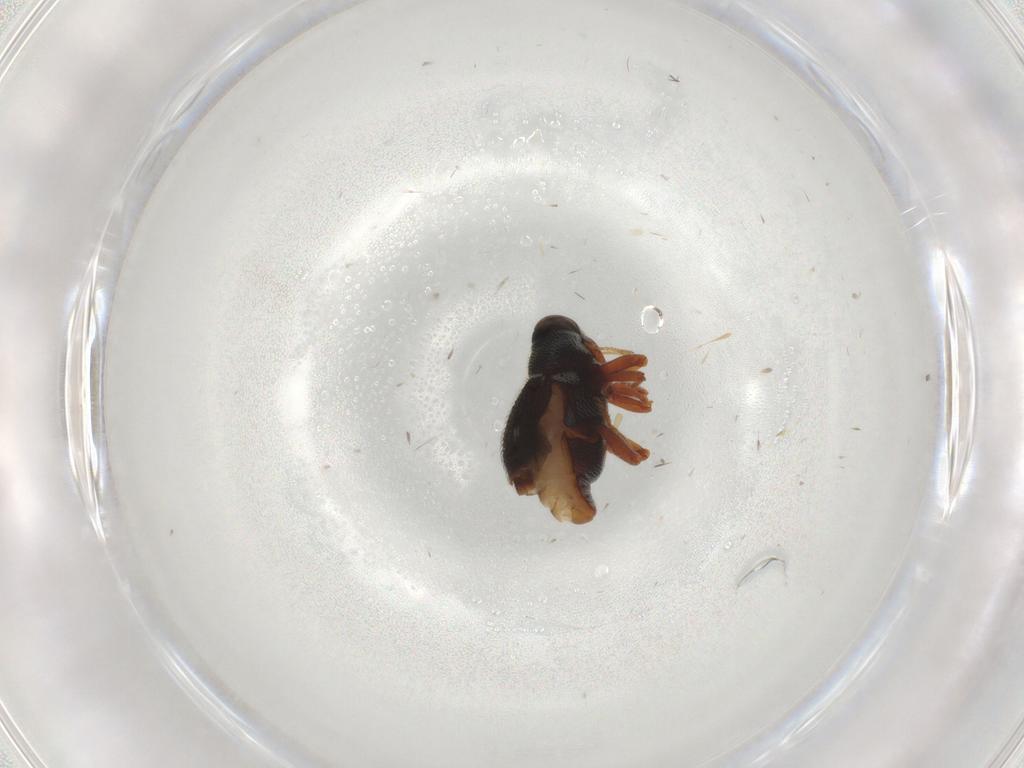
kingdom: Animalia
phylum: Arthropoda
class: Insecta
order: Coleoptera
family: Curculionidae
